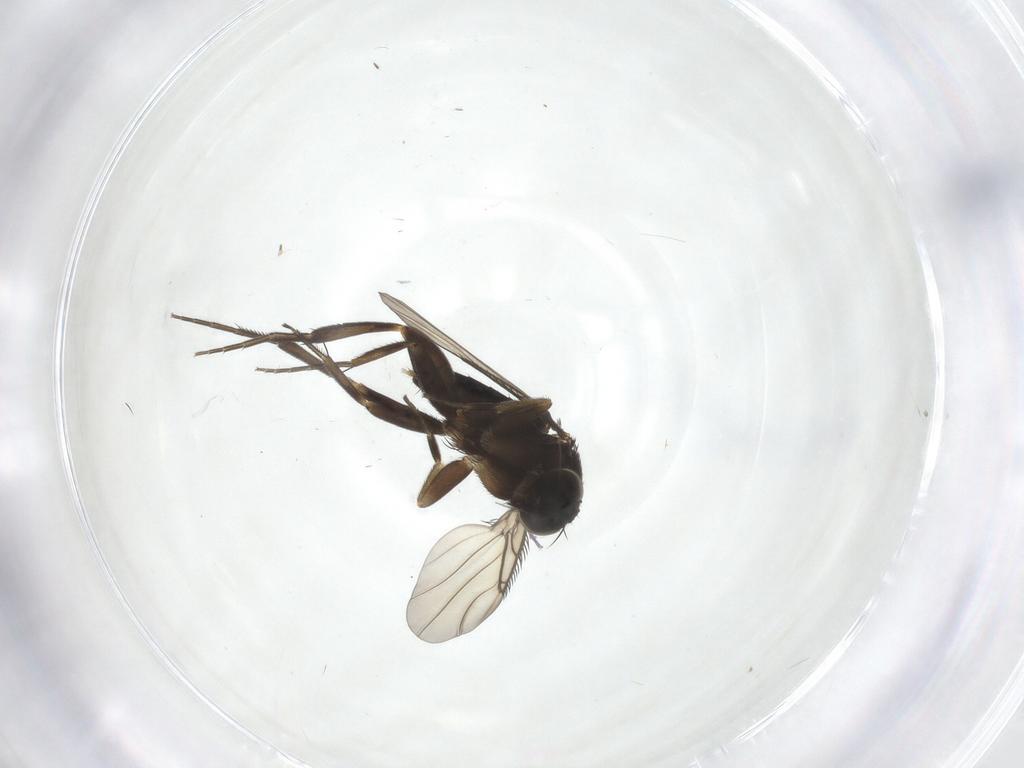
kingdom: Animalia
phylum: Arthropoda
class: Insecta
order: Diptera
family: Phoridae
